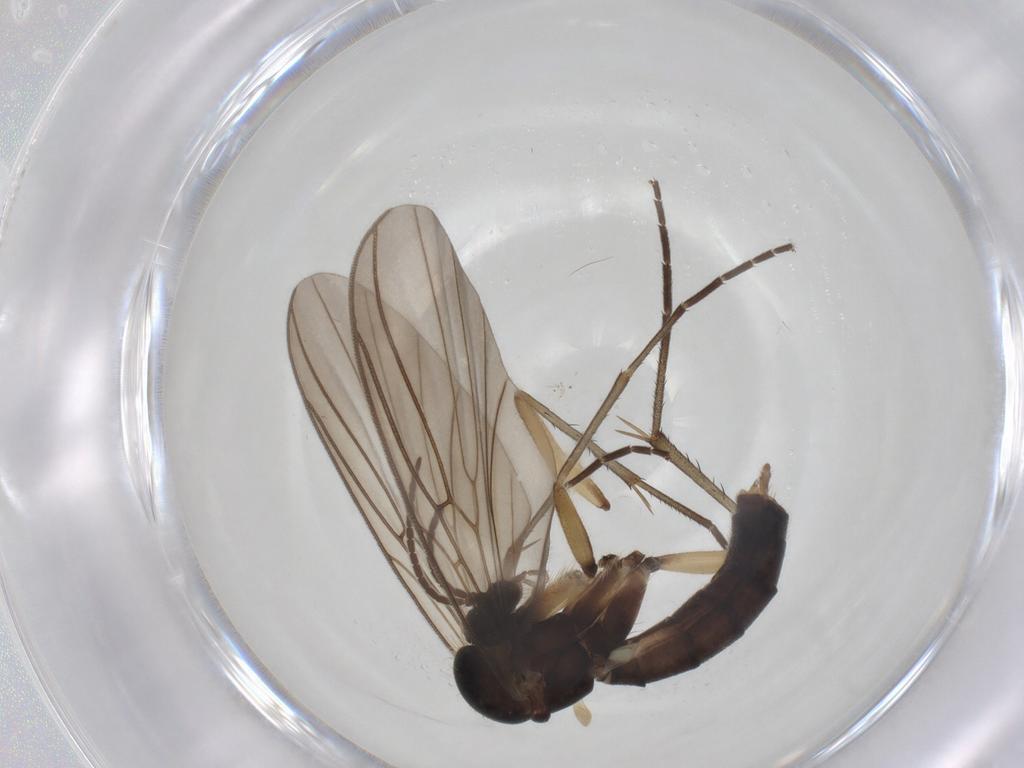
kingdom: Animalia
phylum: Arthropoda
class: Insecta
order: Diptera
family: Mycetophilidae
